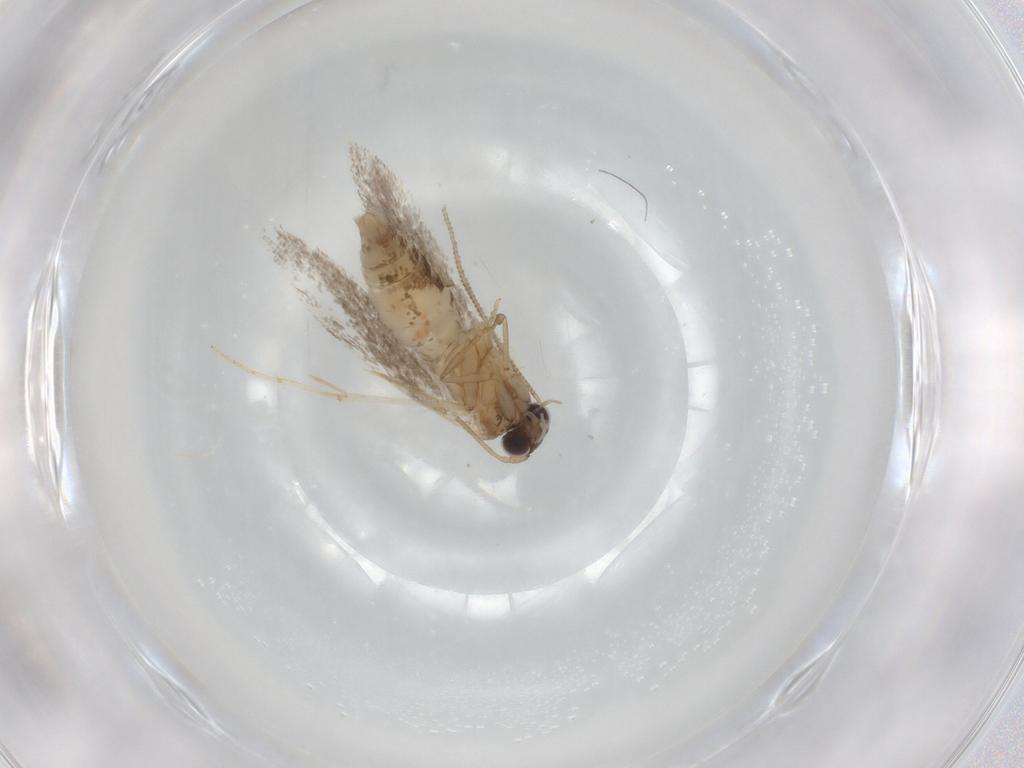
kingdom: Animalia
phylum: Arthropoda
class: Insecta
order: Lepidoptera
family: Tineidae
